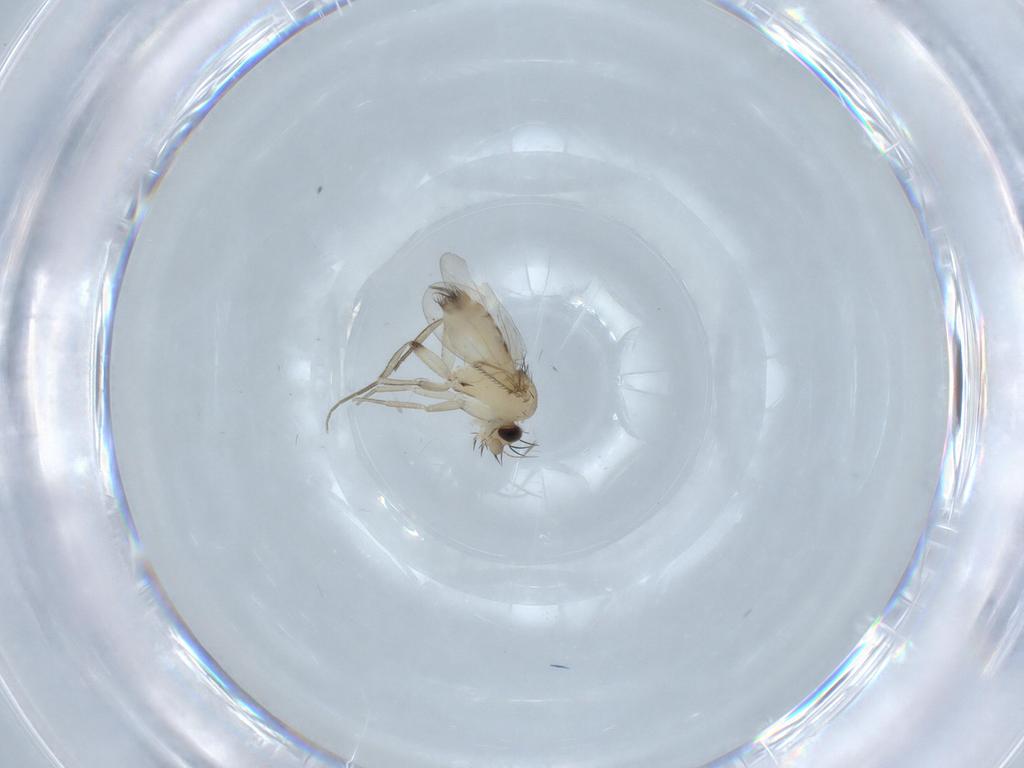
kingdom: Animalia
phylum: Arthropoda
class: Insecta
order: Diptera
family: Phoridae
